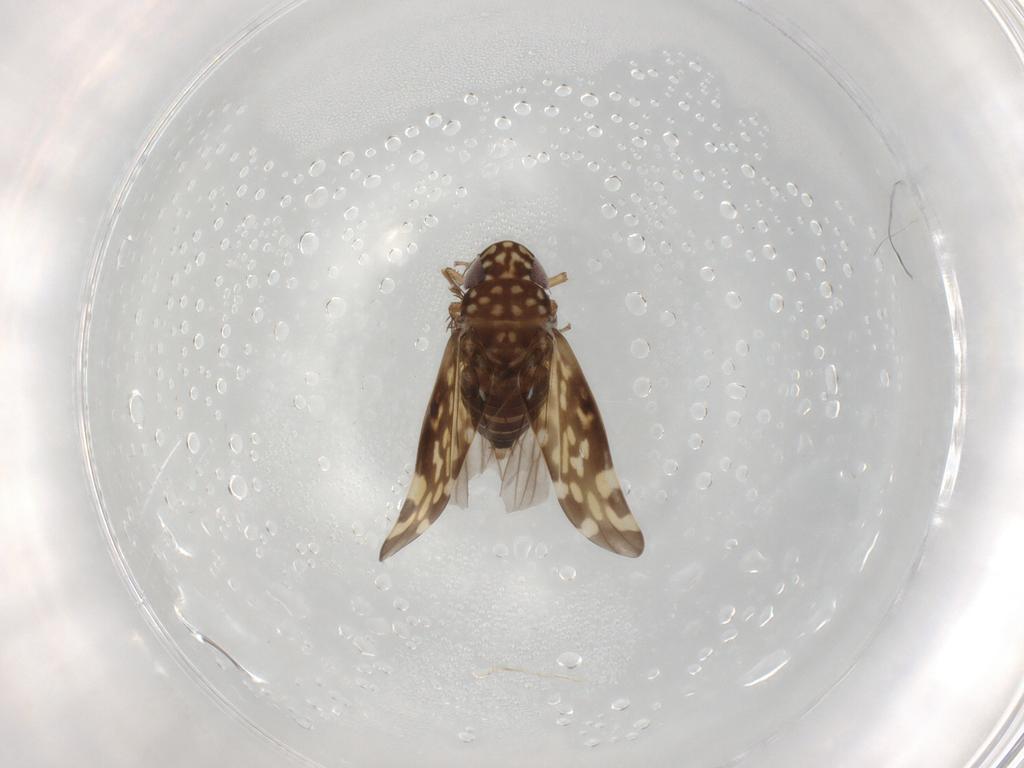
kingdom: Animalia
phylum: Arthropoda
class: Insecta
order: Hemiptera
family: Cicadellidae
